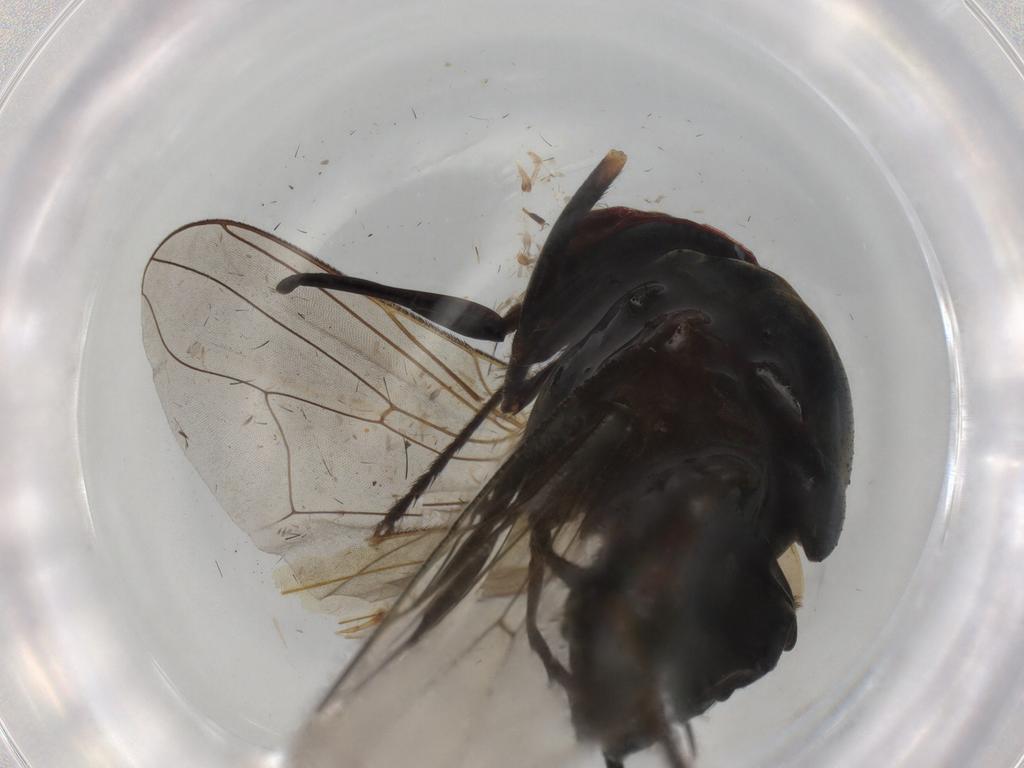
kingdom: Animalia
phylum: Arthropoda
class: Insecta
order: Diptera
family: Chloropidae
